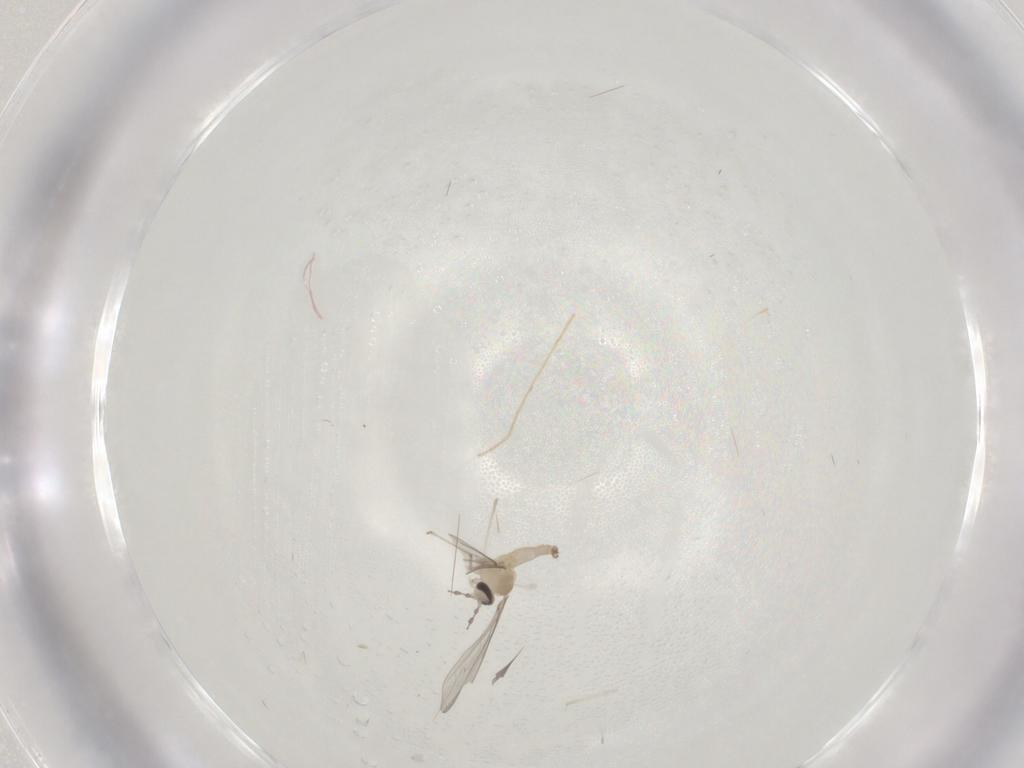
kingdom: Animalia
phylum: Arthropoda
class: Insecta
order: Diptera
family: Chironomidae
